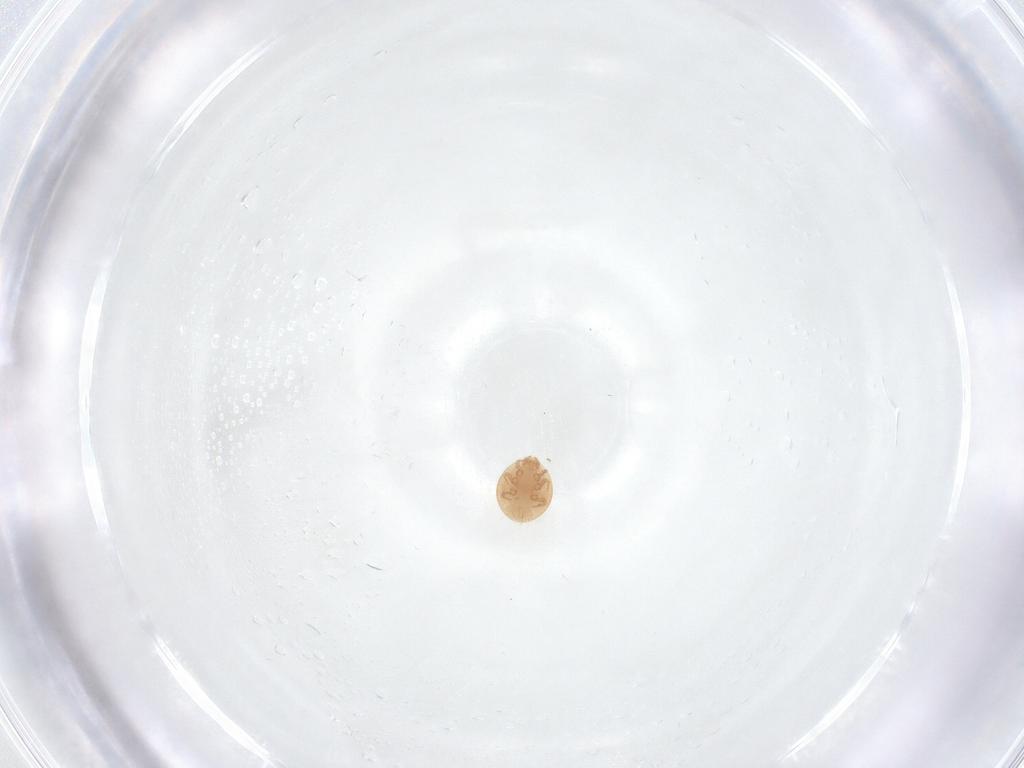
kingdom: Animalia
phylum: Arthropoda
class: Arachnida
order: Mesostigmata
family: Trematuridae
